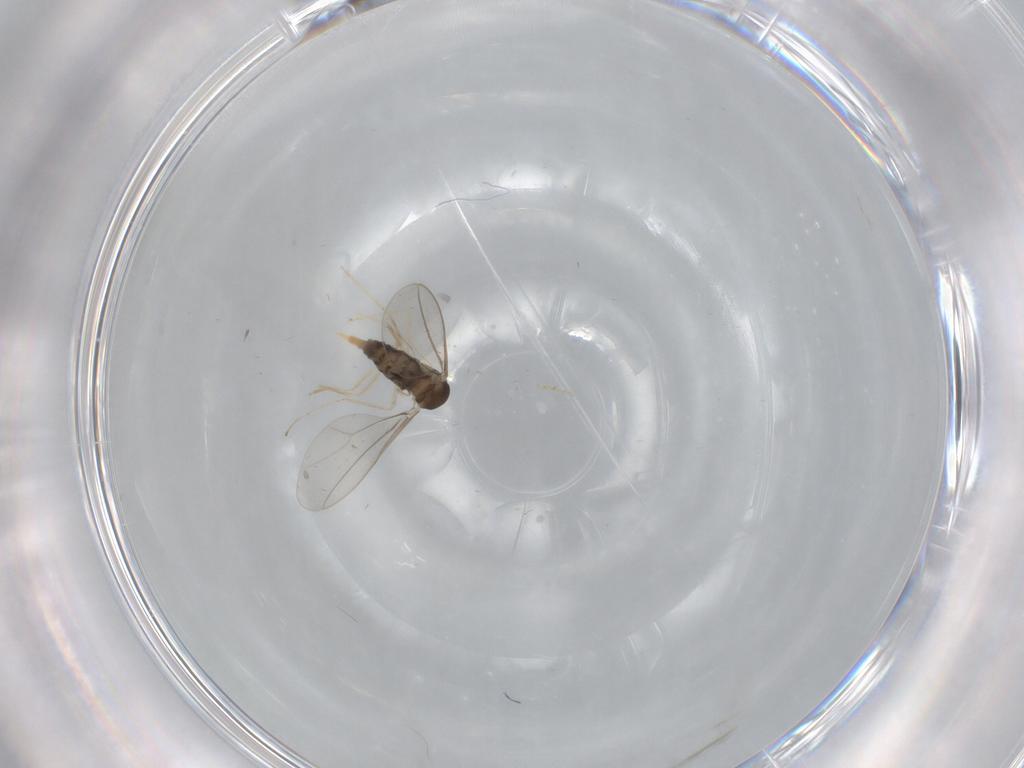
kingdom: Animalia
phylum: Arthropoda
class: Insecta
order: Diptera
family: Cecidomyiidae
